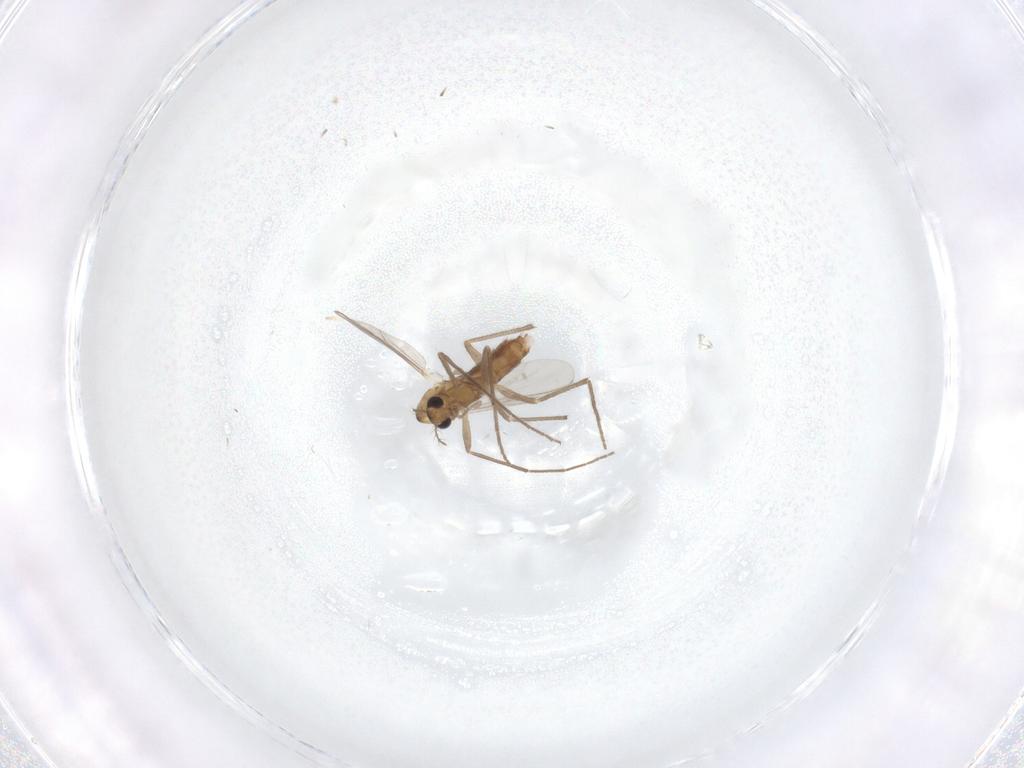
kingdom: Animalia
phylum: Arthropoda
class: Insecta
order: Diptera
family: Chironomidae
